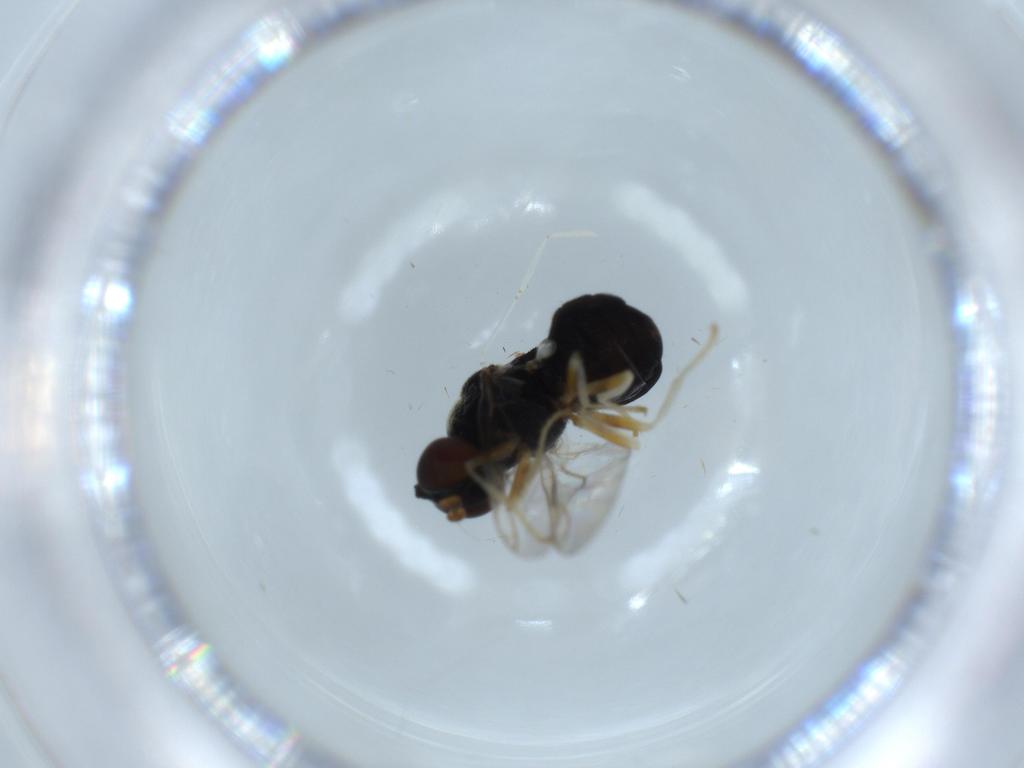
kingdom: Animalia
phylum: Arthropoda
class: Insecta
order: Diptera
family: Stratiomyidae
